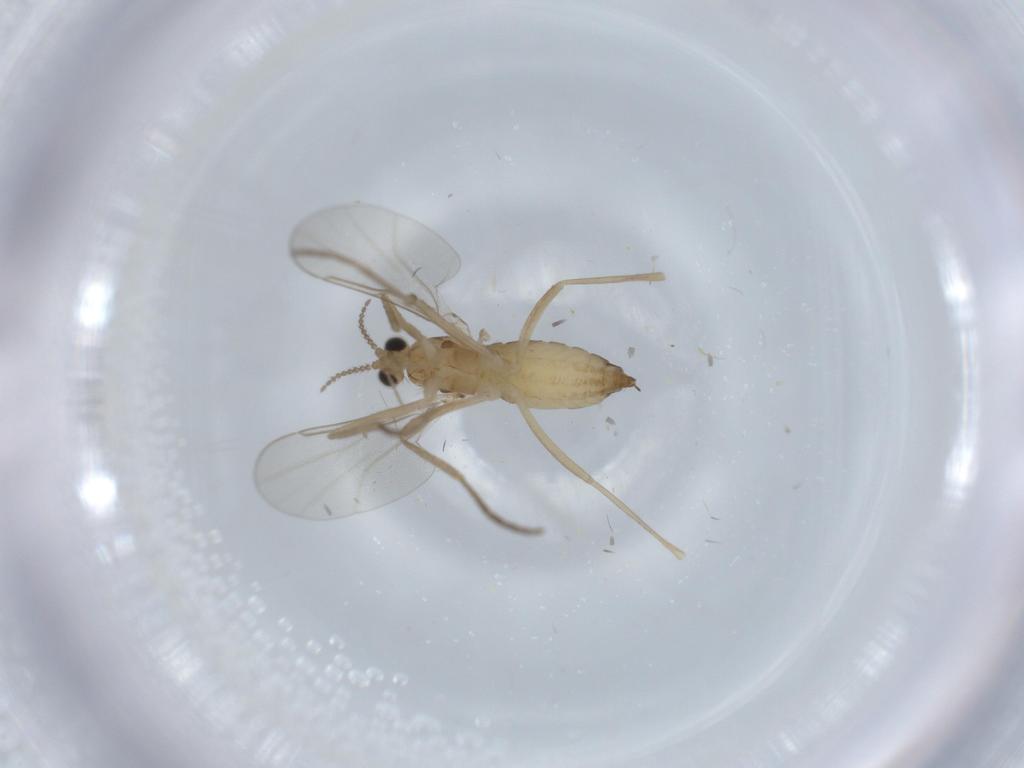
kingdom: Animalia
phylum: Arthropoda
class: Insecta
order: Diptera
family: Cecidomyiidae
